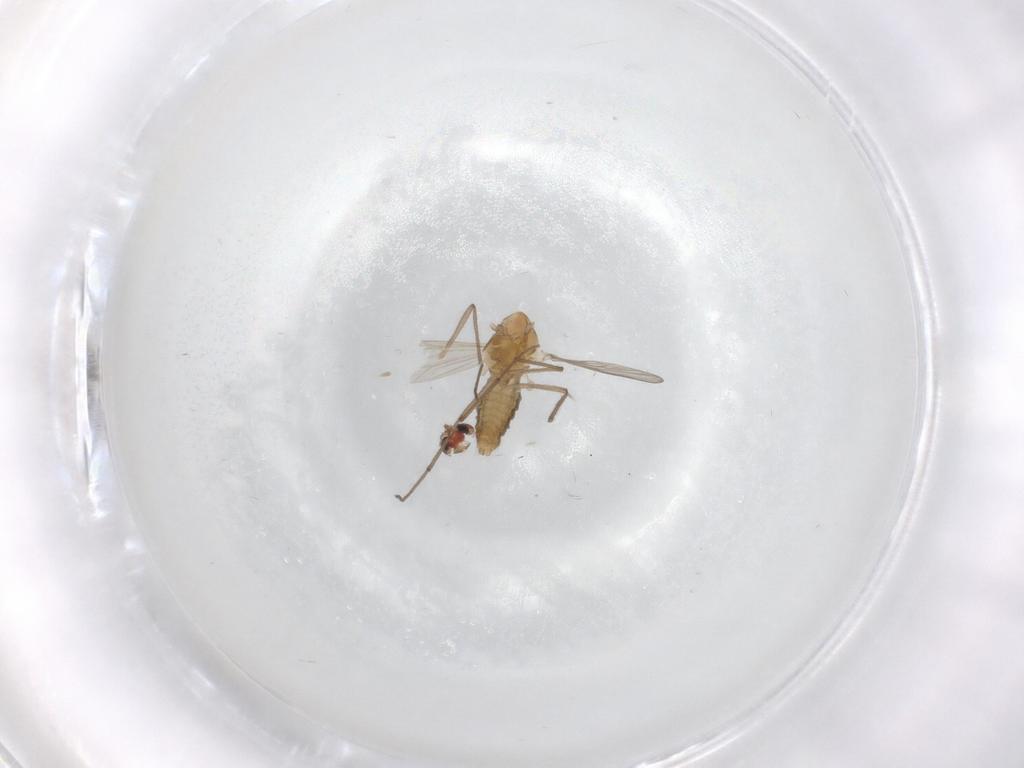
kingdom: Animalia
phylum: Arthropoda
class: Insecta
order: Diptera
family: Chironomidae
